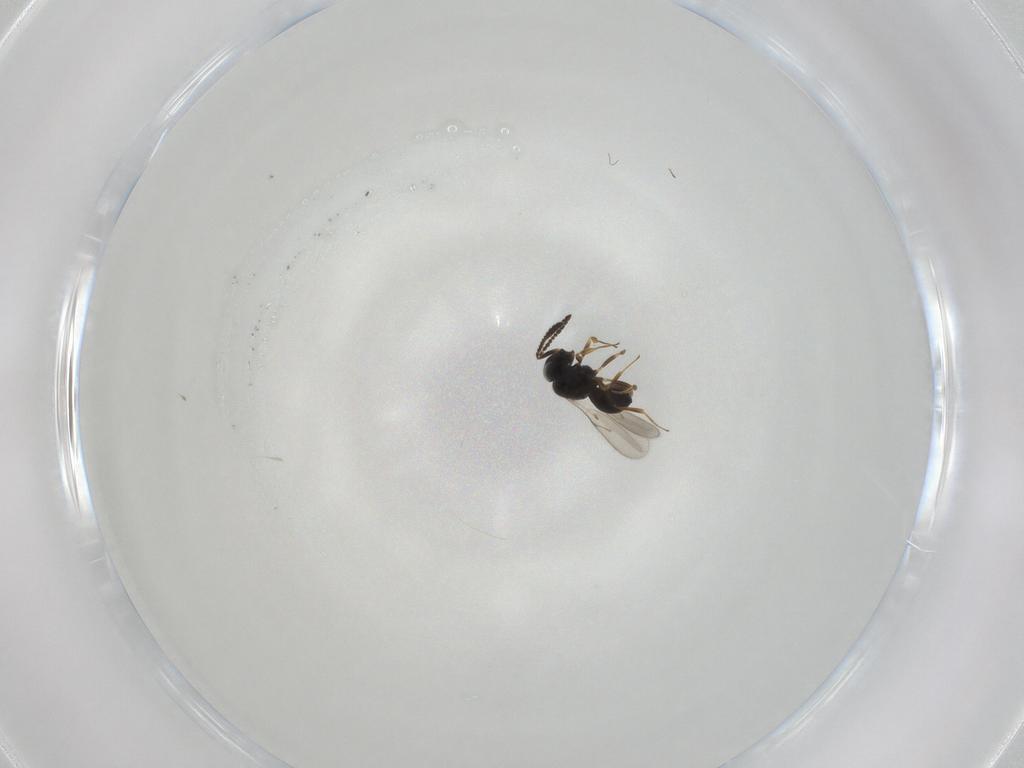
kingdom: Animalia
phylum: Arthropoda
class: Insecta
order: Hymenoptera
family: Scelionidae
